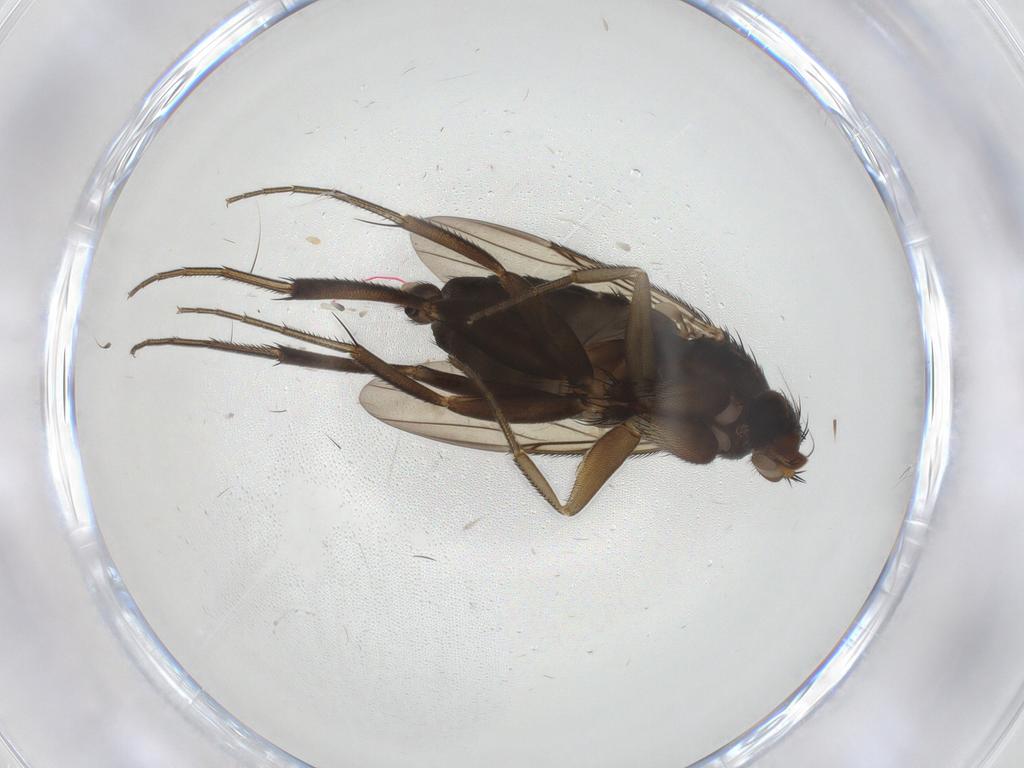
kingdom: Animalia
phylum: Arthropoda
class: Insecta
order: Diptera
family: Phoridae
